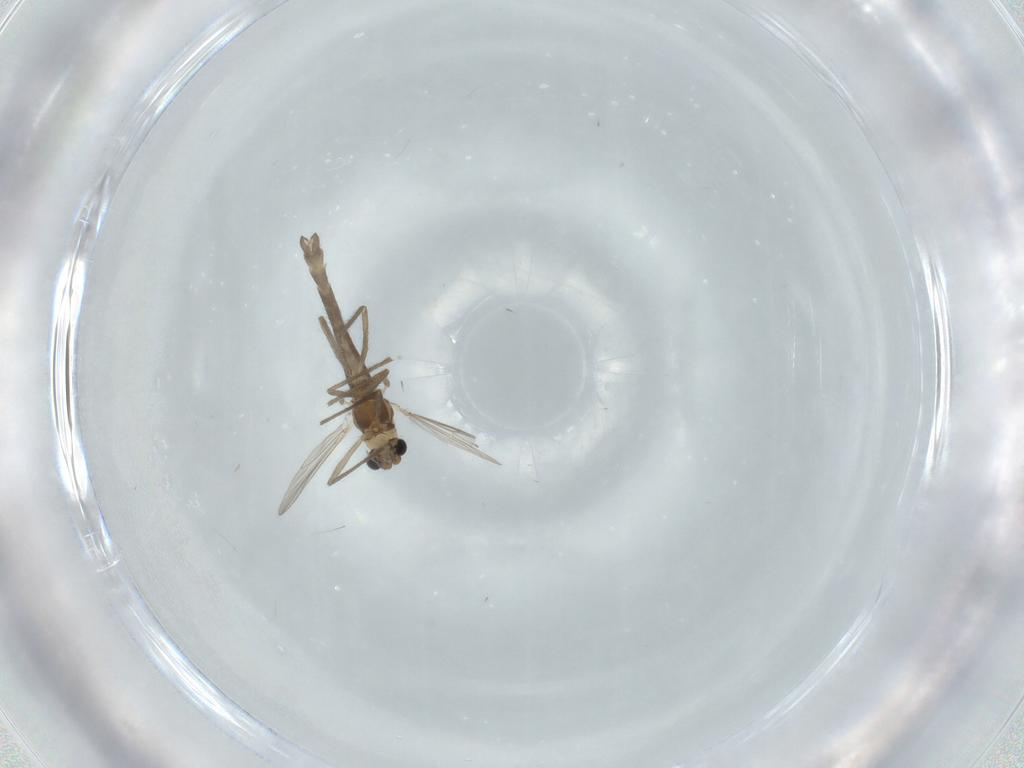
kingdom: Animalia
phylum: Arthropoda
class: Insecta
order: Diptera
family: Chironomidae
